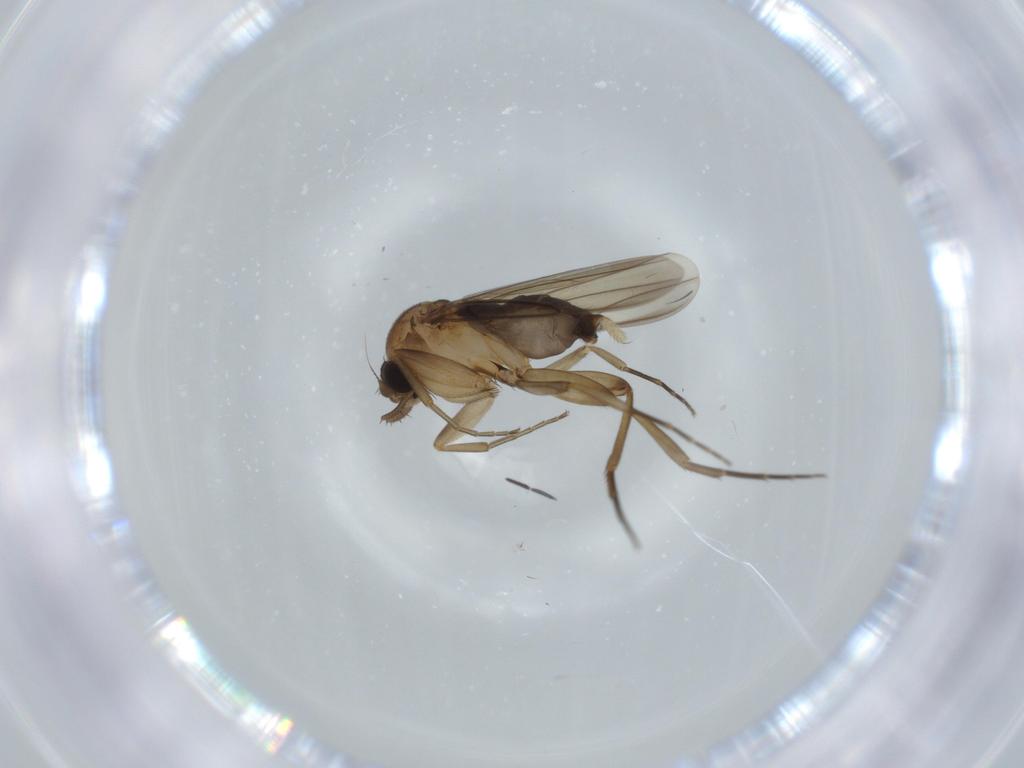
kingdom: Animalia
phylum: Arthropoda
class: Insecta
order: Diptera
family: Phoridae
